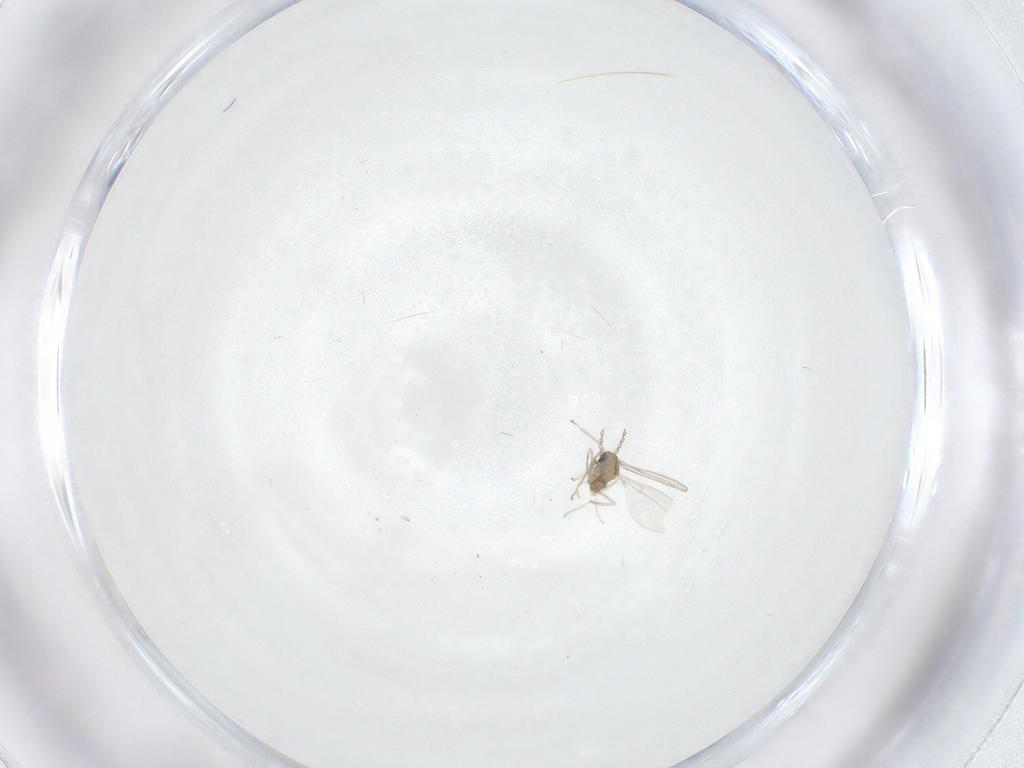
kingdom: Animalia
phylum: Arthropoda
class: Insecta
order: Diptera
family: Cecidomyiidae
